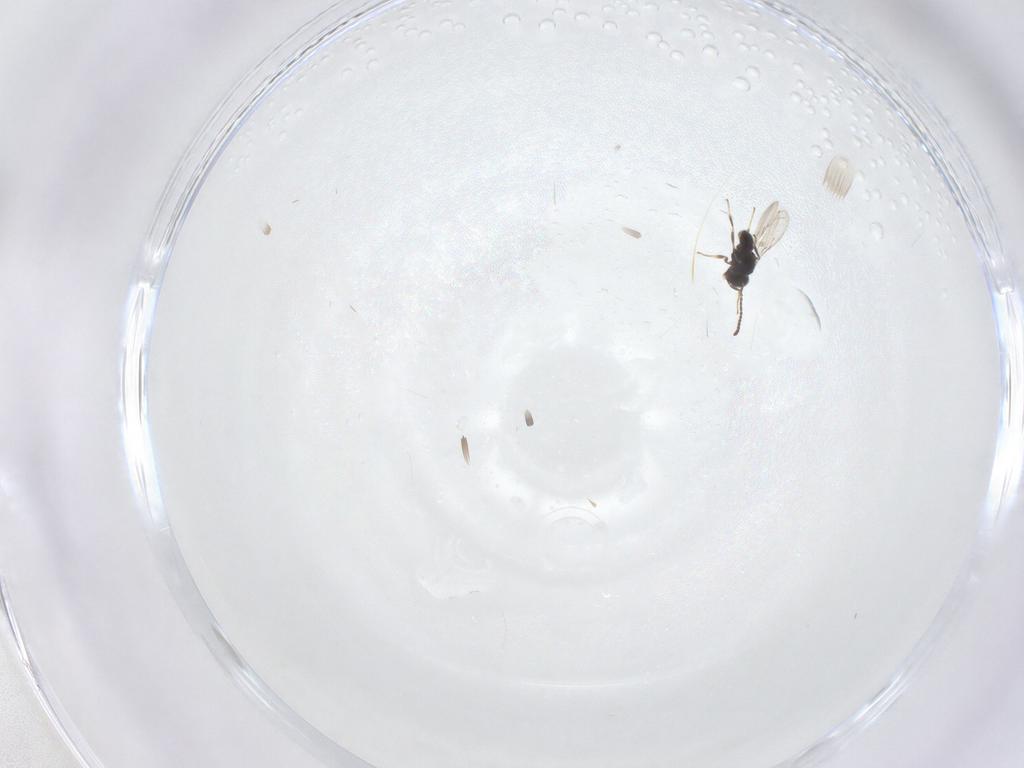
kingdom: Animalia
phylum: Arthropoda
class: Insecta
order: Hymenoptera
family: Scelionidae
